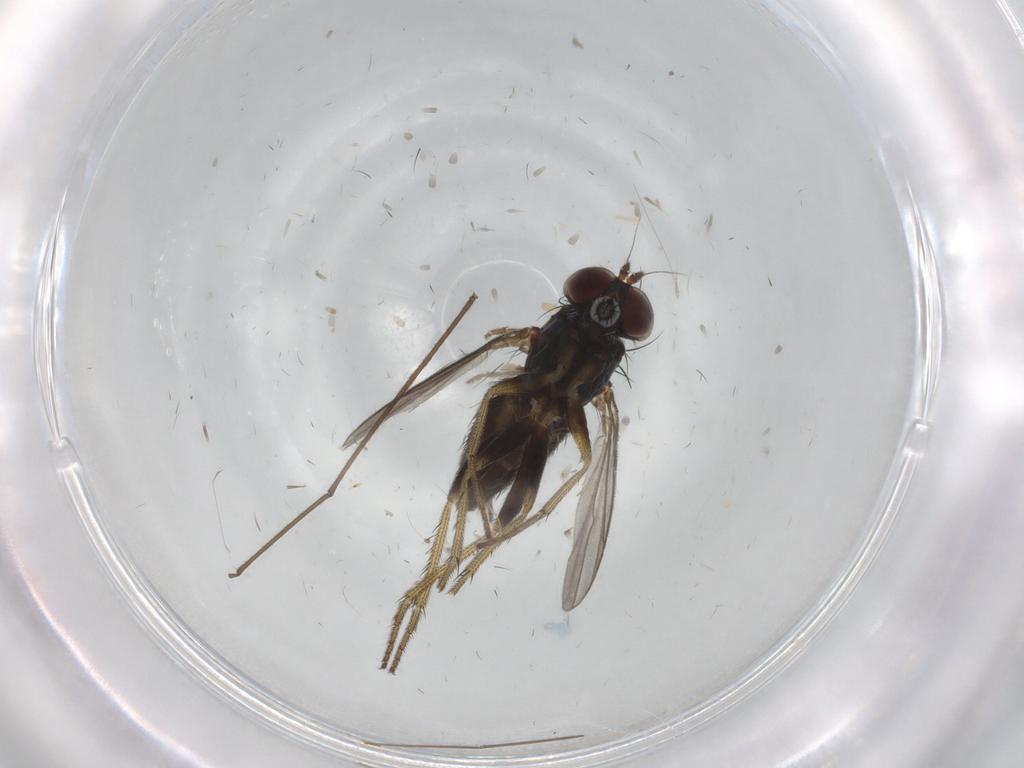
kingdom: Animalia
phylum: Arthropoda
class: Insecta
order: Diptera
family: Chironomidae
